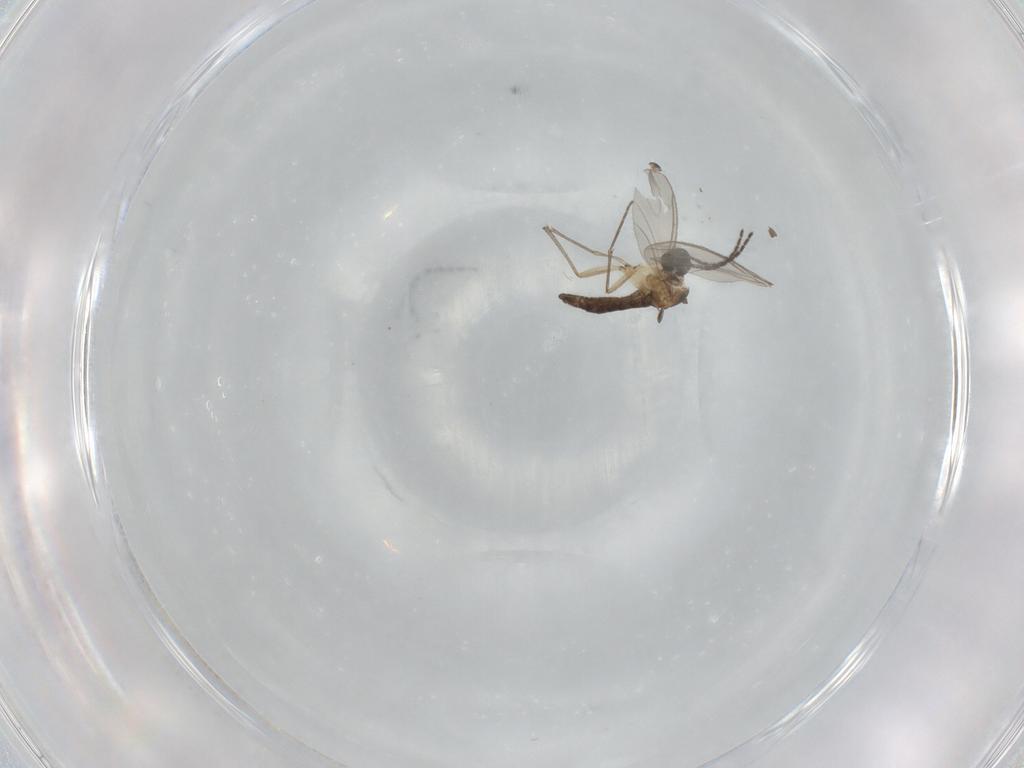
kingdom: Animalia
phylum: Arthropoda
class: Insecta
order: Diptera
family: Sciaridae
